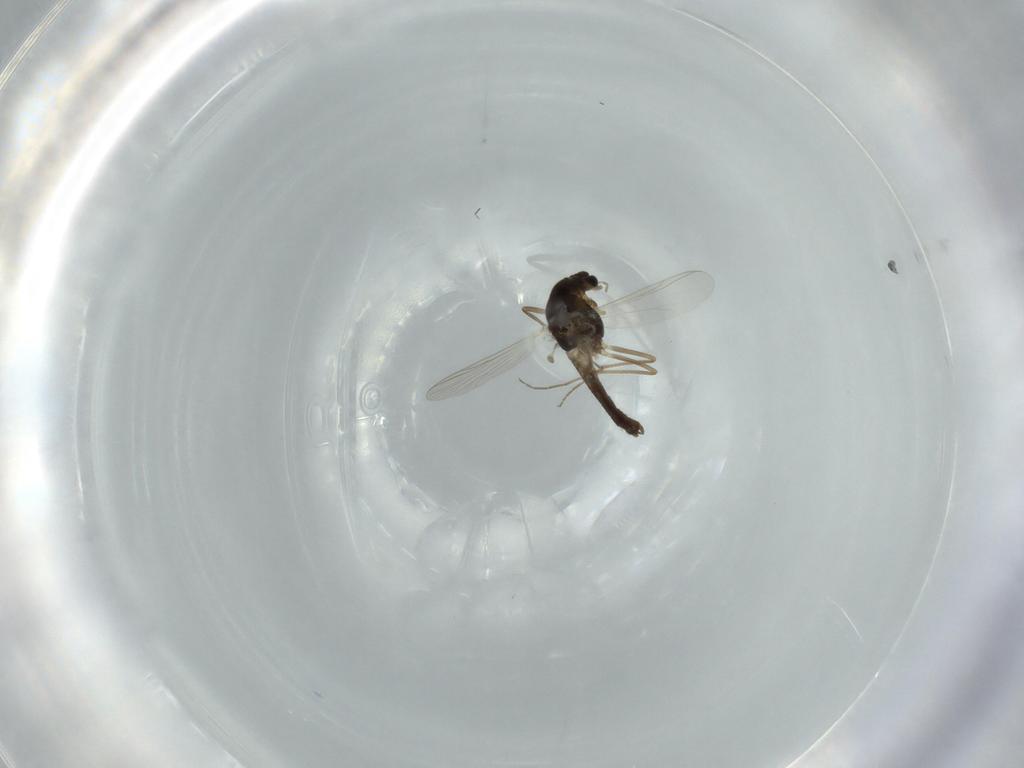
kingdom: Animalia
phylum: Arthropoda
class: Insecta
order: Diptera
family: Chironomidae
